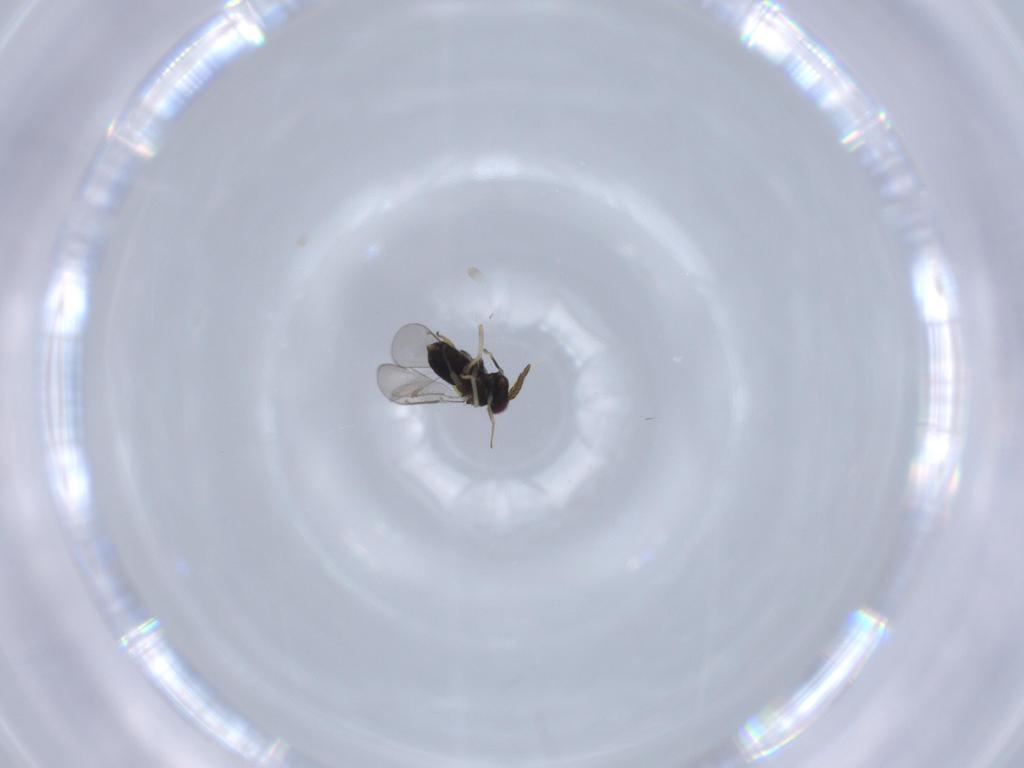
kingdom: Animalia
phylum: Arthropoda
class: Insecta
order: Hymenoptera
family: Aphelinidae
